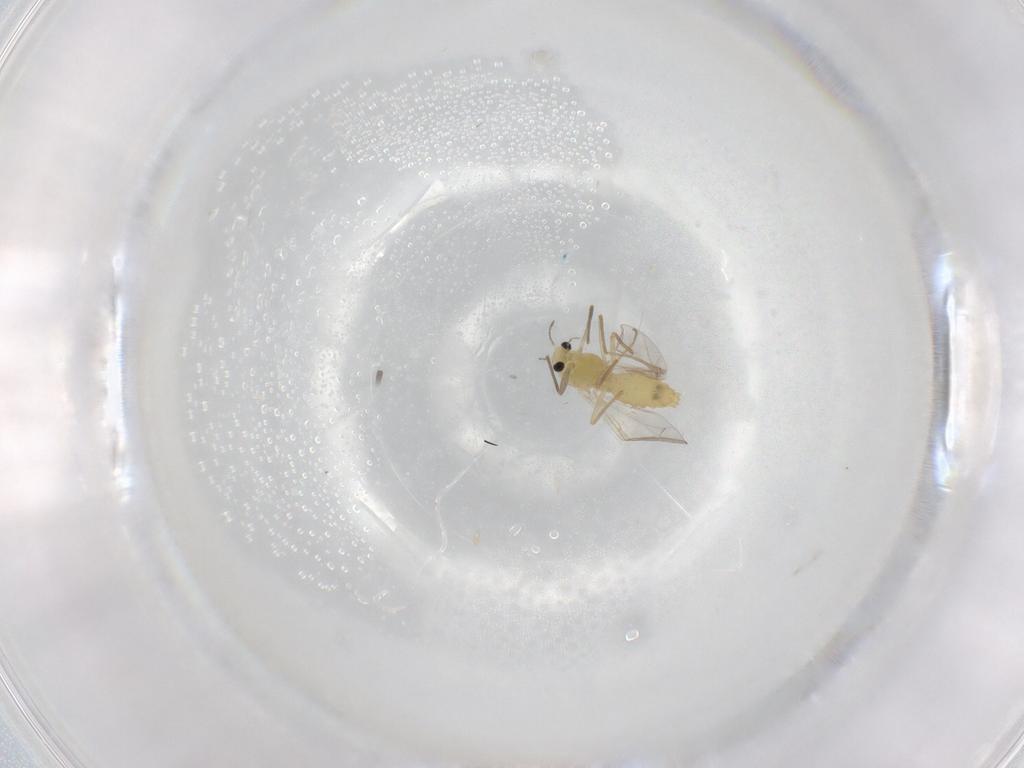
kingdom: Animalia
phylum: Arthropoda
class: Insecta
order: Diptera
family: Chironomidae
